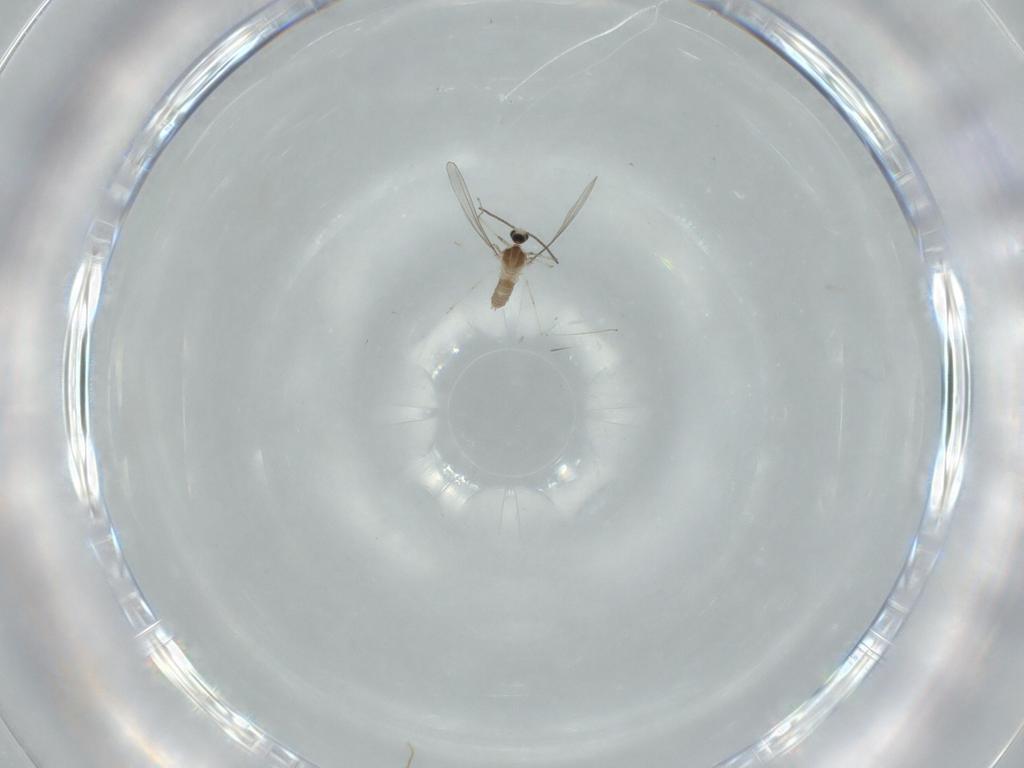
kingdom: Animalia
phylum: Arthropoda
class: Insecta
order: Diptera
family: Cecidomyiidae
